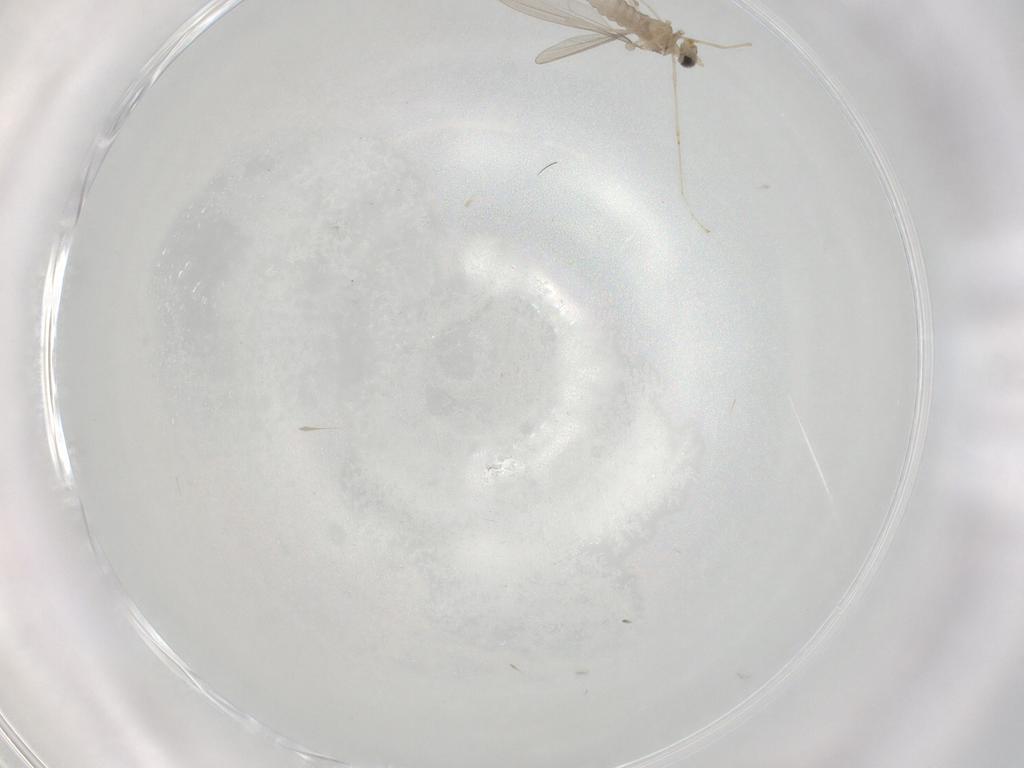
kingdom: Animalia
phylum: Arthropoda
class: Insecta
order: Diptera
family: Cecidomyiidae
